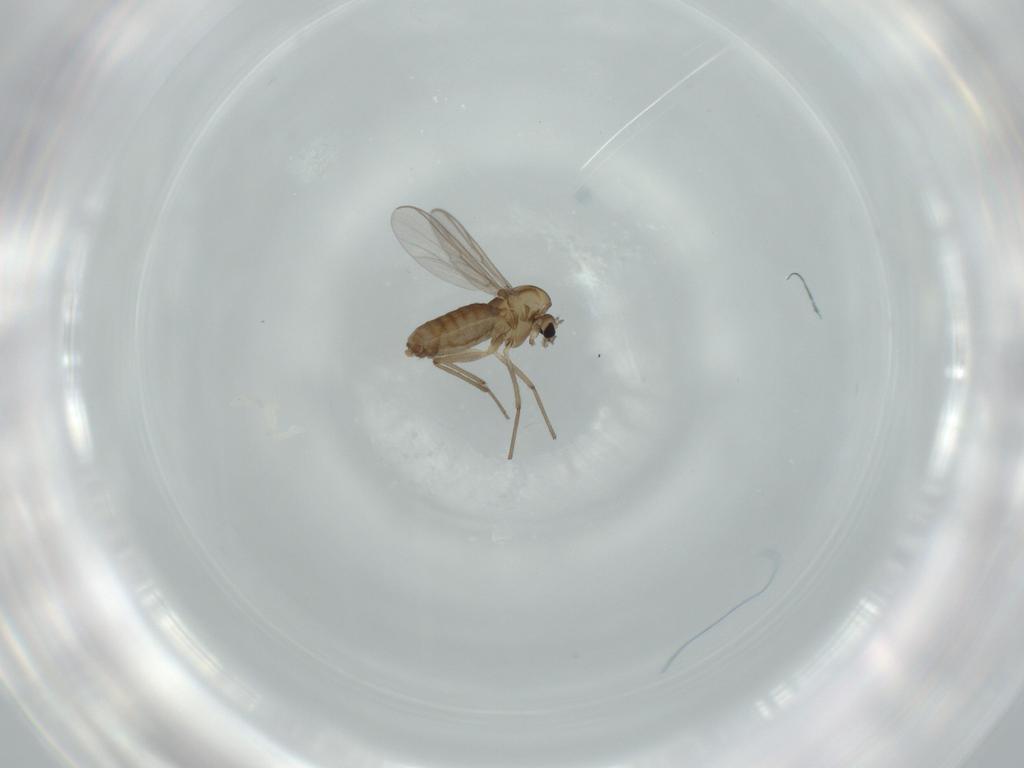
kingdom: Animalia
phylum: Arthropoda
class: Insecta
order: Diptera
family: Chironomidae
